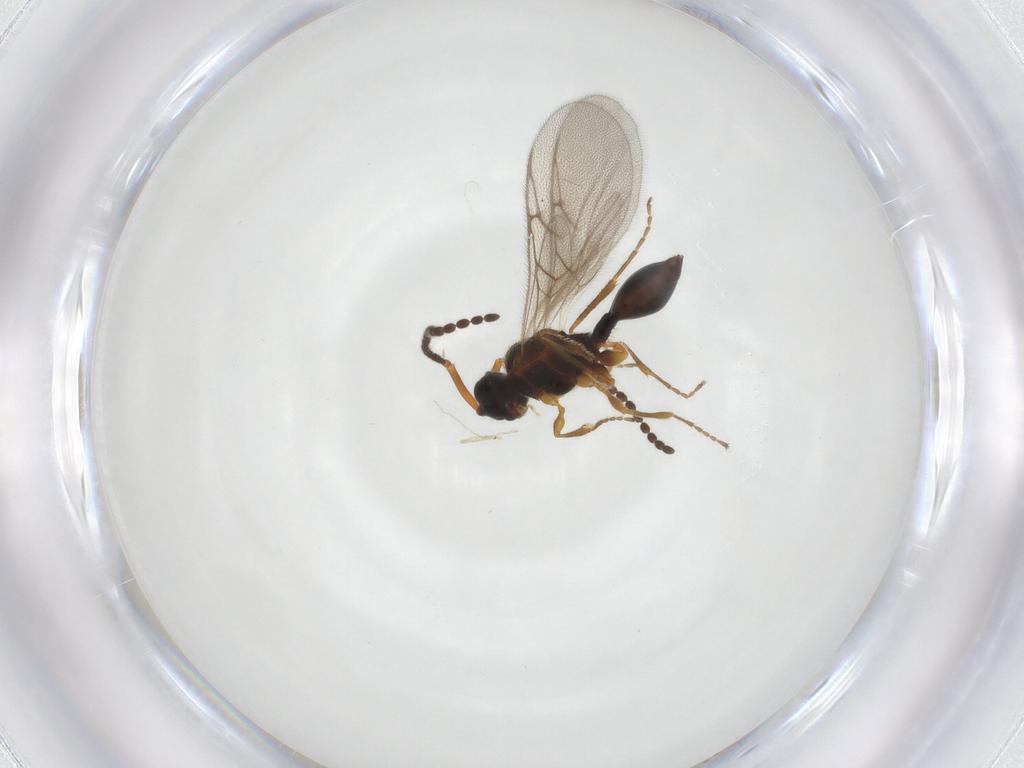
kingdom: Animalia
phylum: Arthropoda
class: Insecta
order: Hymenoptera
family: Diapriidae
